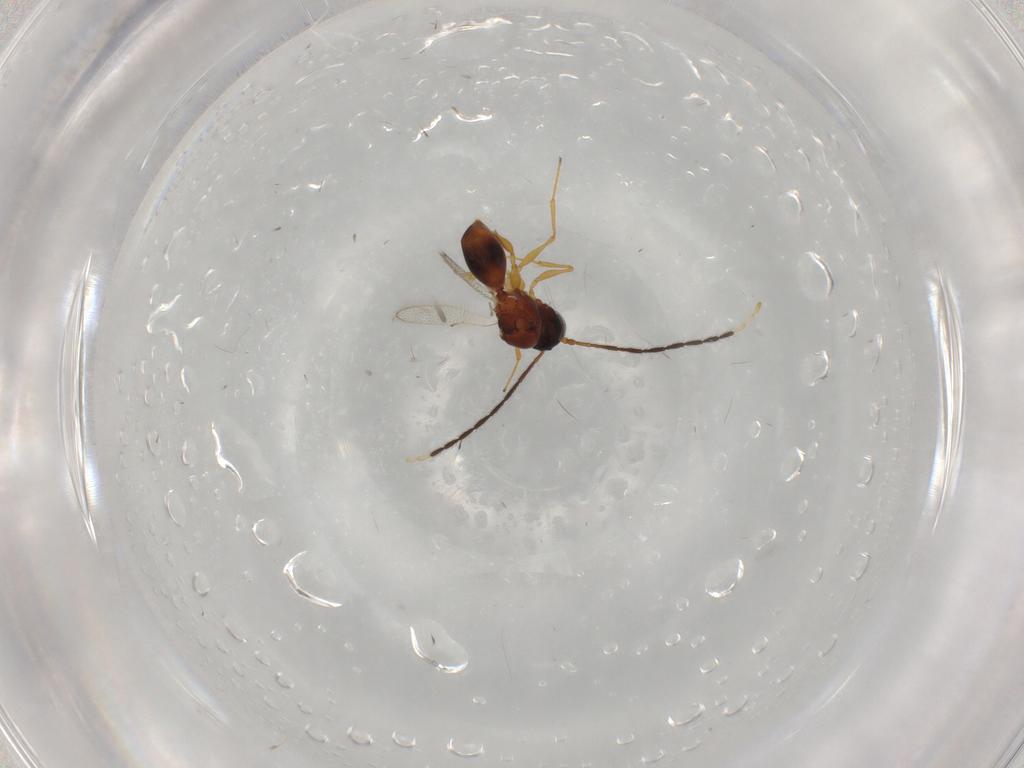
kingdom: Animalia
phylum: Arthropoda
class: Insecta
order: Hymenoptera
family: Figitidae
